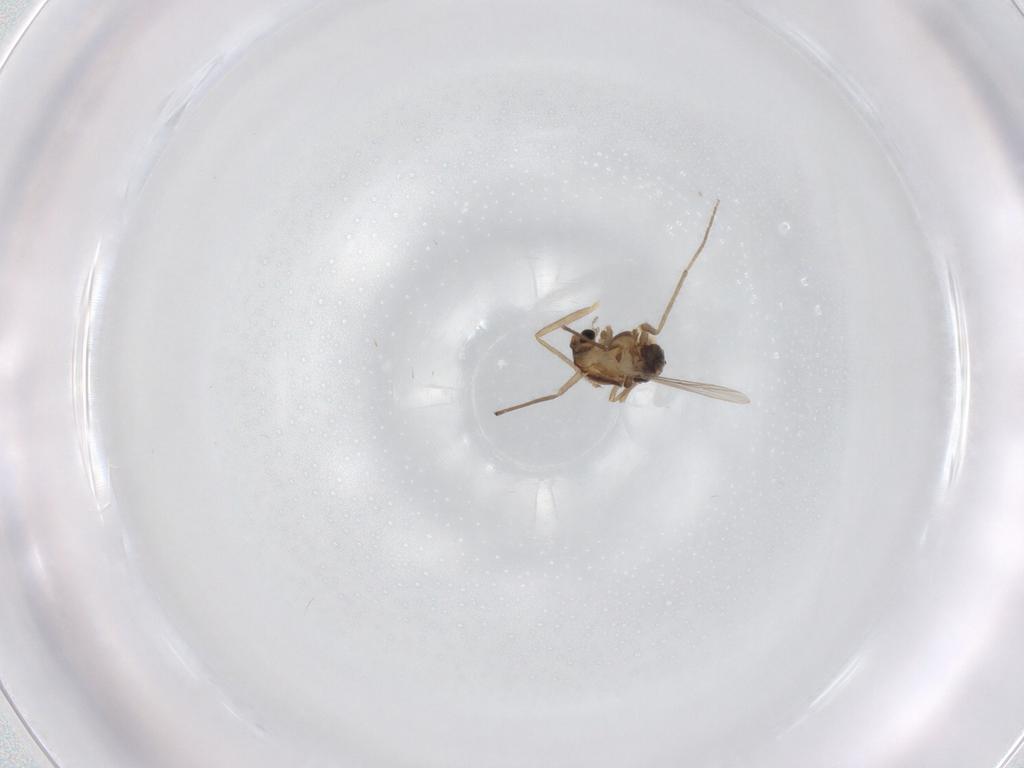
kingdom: Animalia
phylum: Arthropoda
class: Insecta
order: Diptera
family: Chironomidae
